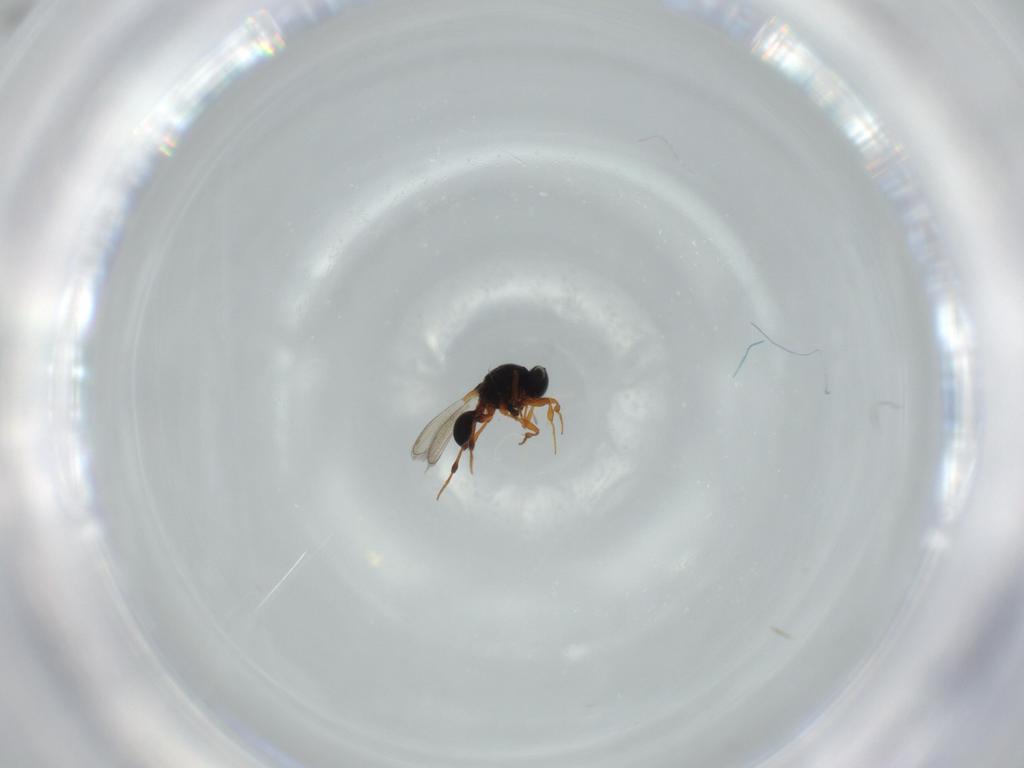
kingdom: Animalia
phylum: Arthropoda
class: Insecta
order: Hymenoptera
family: Platygastridae
